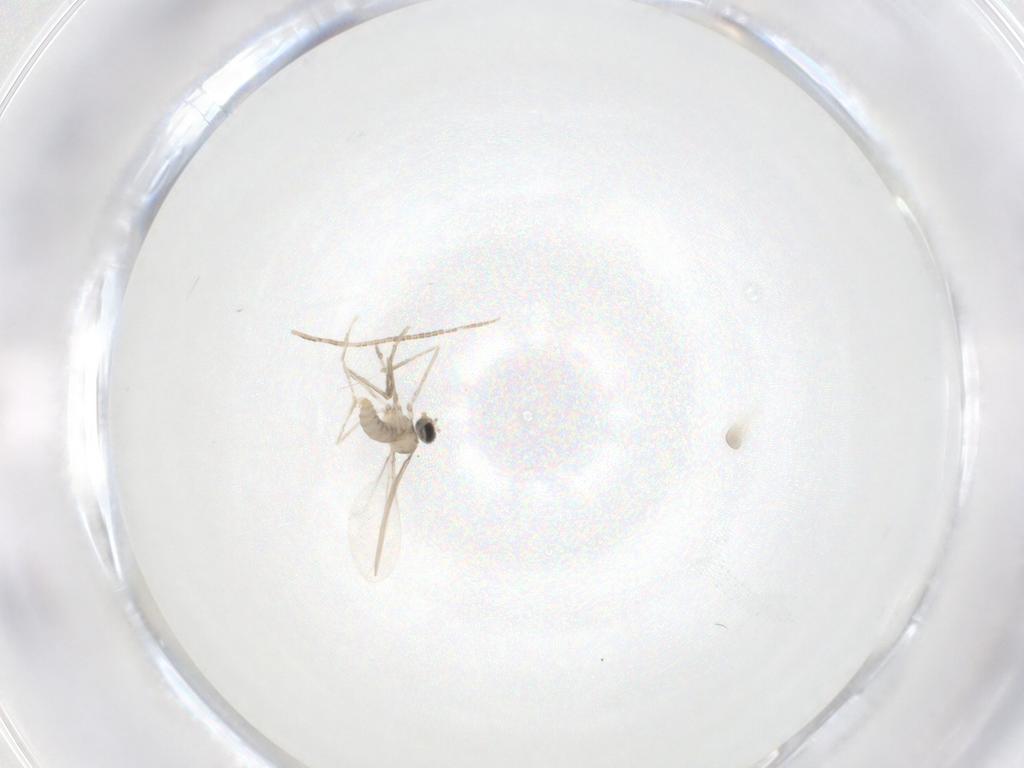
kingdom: Animalia
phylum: Arthropoda
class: Insecta
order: Diptera
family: Cecidomyiidae
